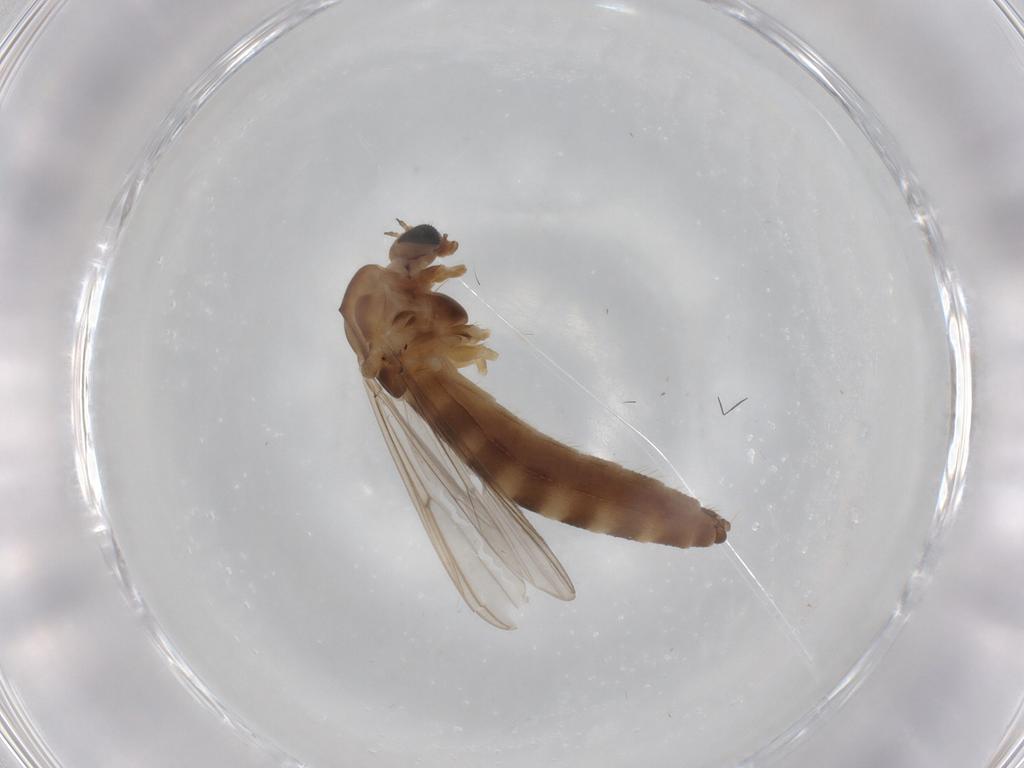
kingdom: Animalia
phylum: Arthropoda
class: Insecta
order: Diptera
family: Chironomidae
